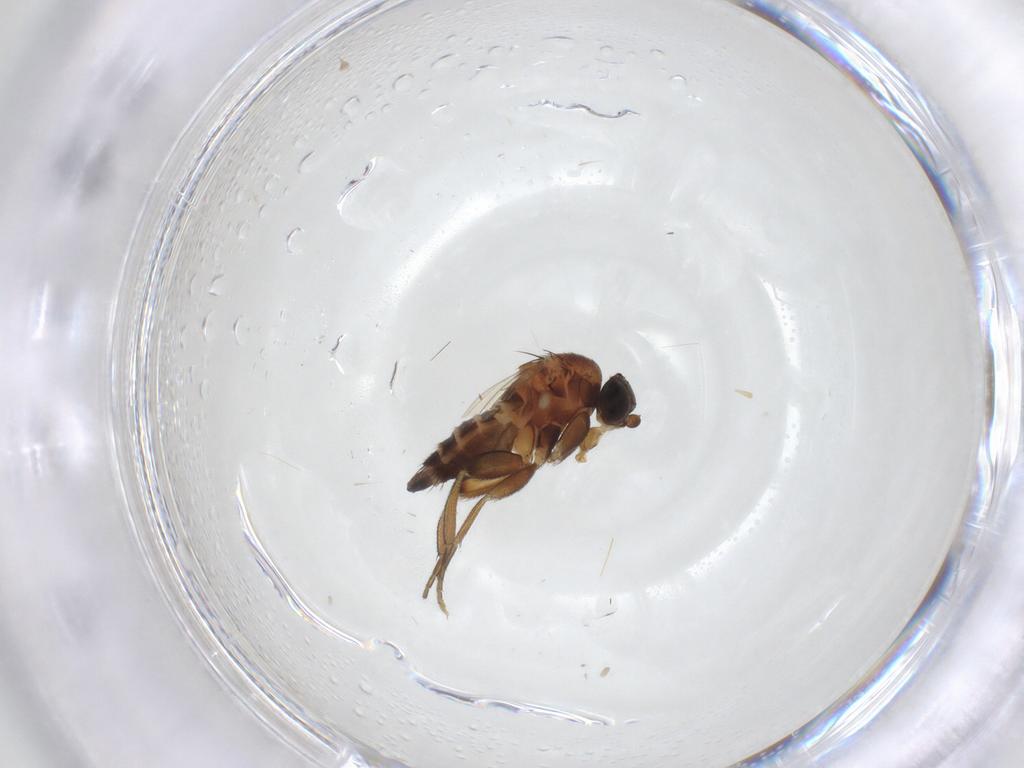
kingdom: Animalia
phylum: Arthropoda
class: Insecta
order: Diptera
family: Phoridae
